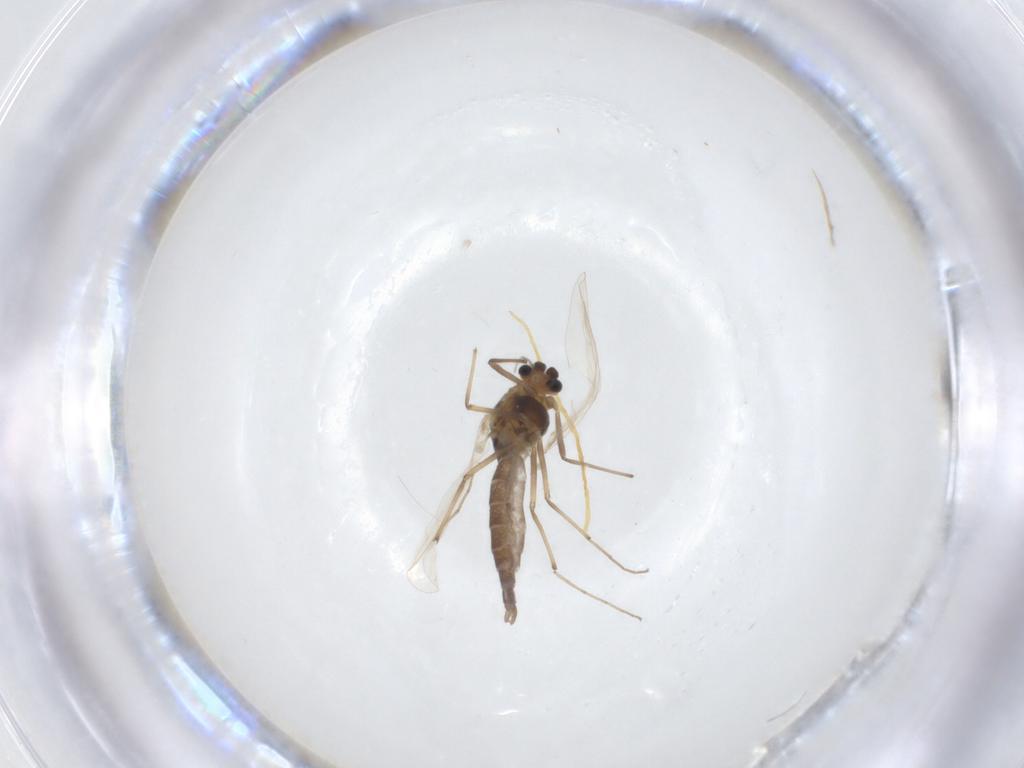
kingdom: Animalia
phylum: Arthropoda
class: Insecta
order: Diptera
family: Chironomidae
